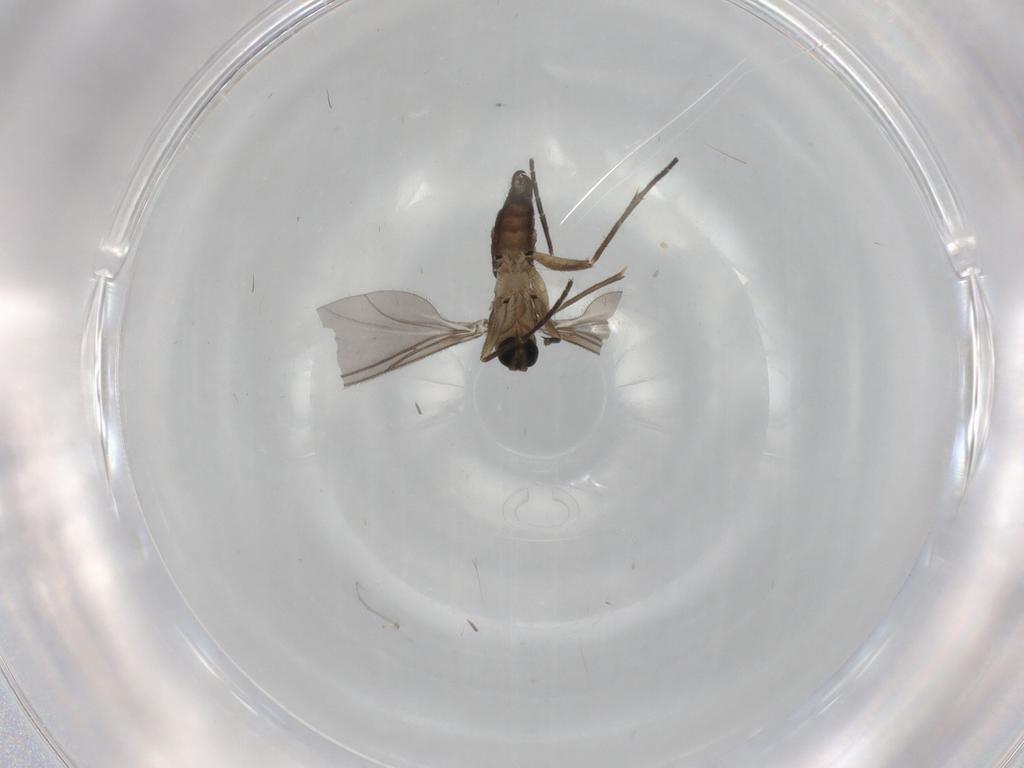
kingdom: Animalia
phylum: Arthropoda
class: Insecta
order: Diptera
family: Sciaridae
